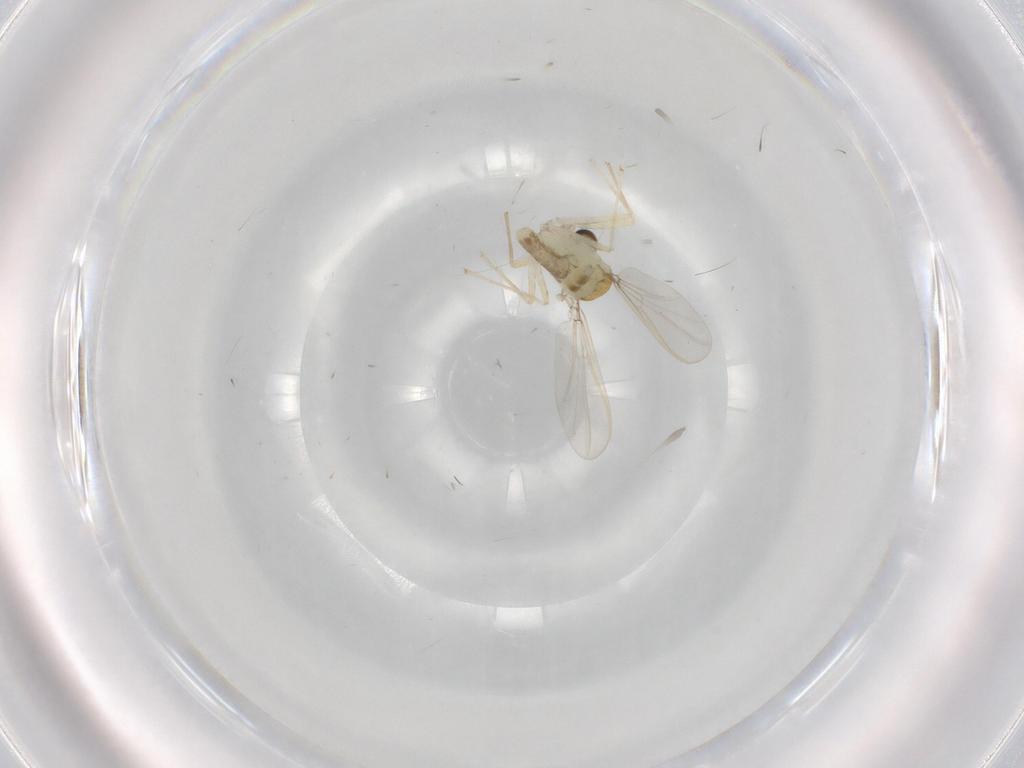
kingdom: Animalia
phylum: Arthropoda
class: Insecta
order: Diptera
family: Chironomidae
